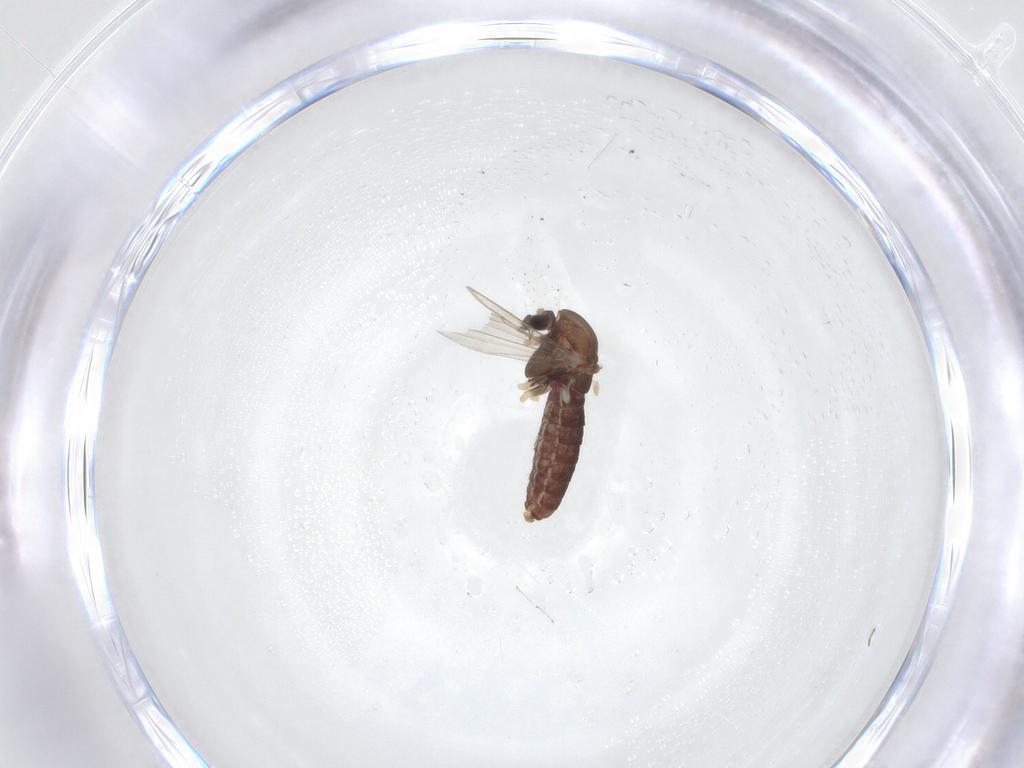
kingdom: Animalia
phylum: Arthropoda
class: Insecta
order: Diptera
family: Chironomidae
